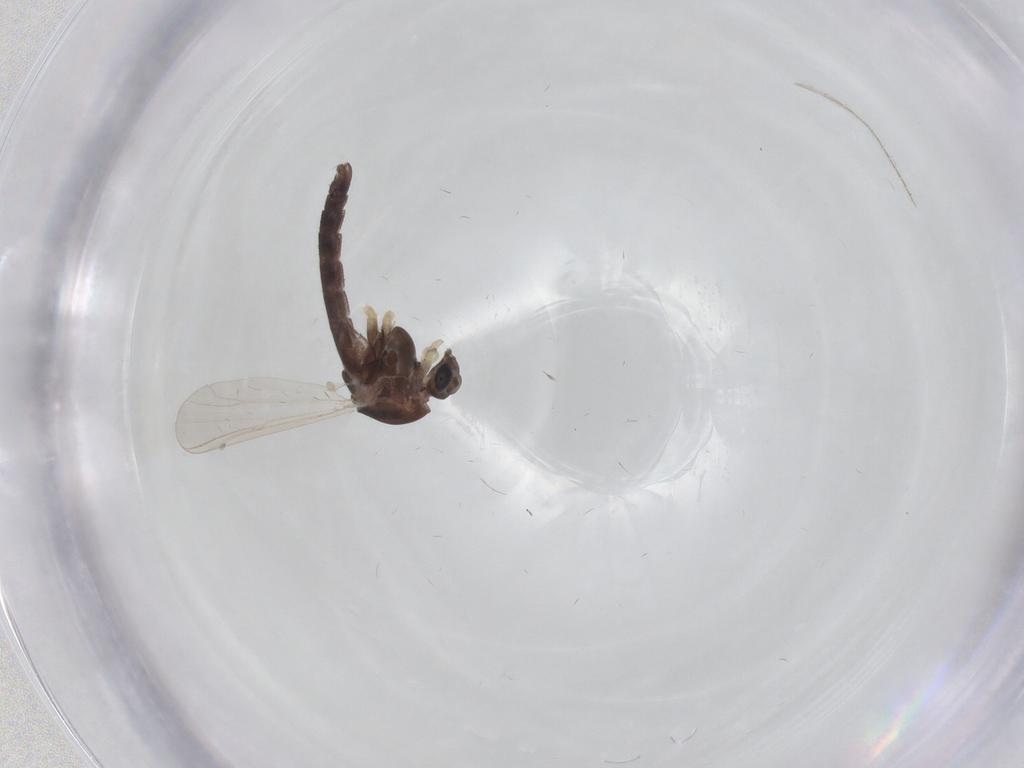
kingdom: Animalia
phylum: Arthropoda
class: Insecta
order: Diptera
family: Chironomidae
